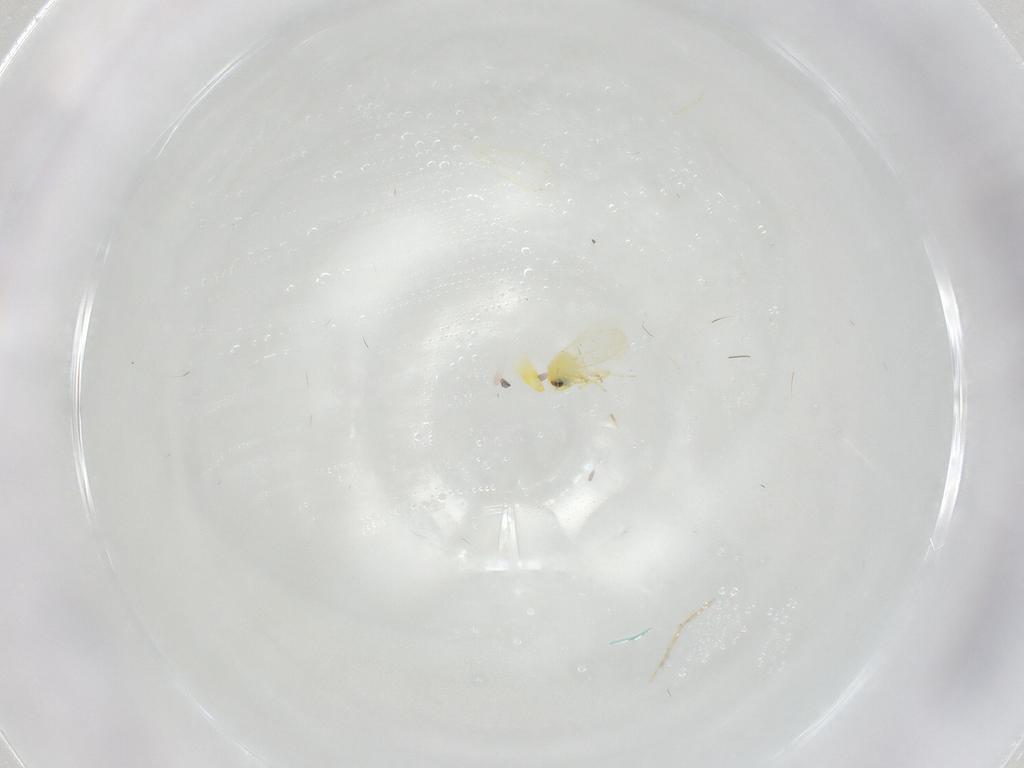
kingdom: Animalia
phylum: Arthropoda
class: Insecta
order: Hemiptera
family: Aleyrodidae
